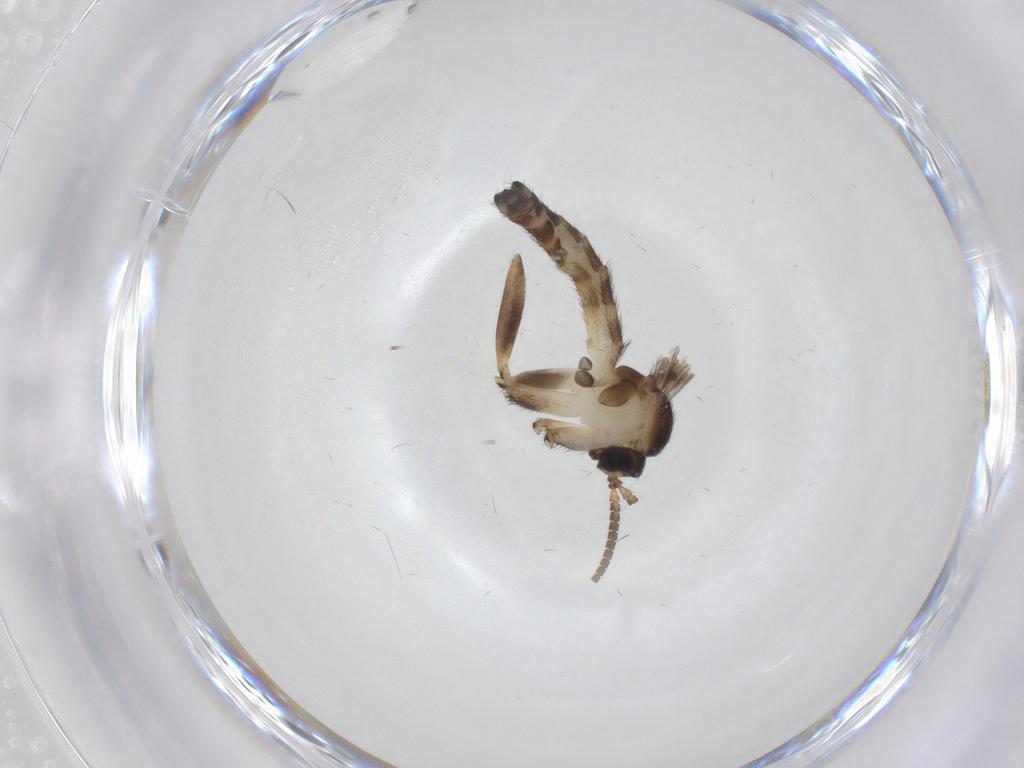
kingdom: Animalia
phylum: Arthropoda
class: Insecta
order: Diptera
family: Keroplatidae
